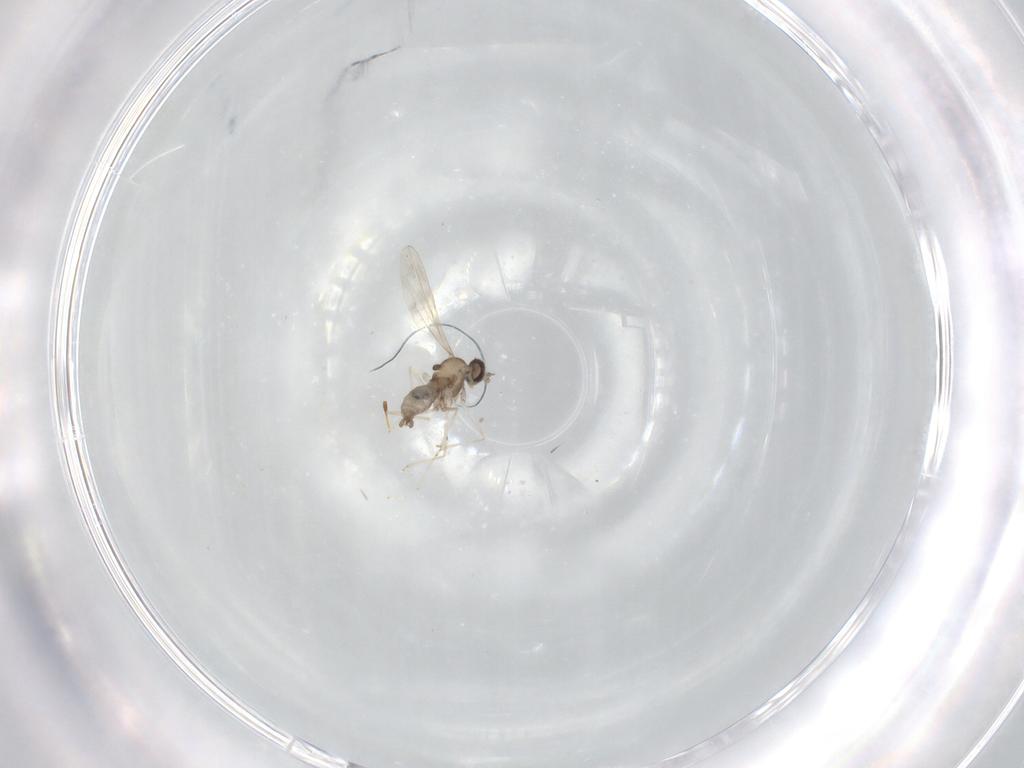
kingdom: Animalia
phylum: Arthropoda
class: Insecta
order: Diptera
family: Cecidomyiidae
